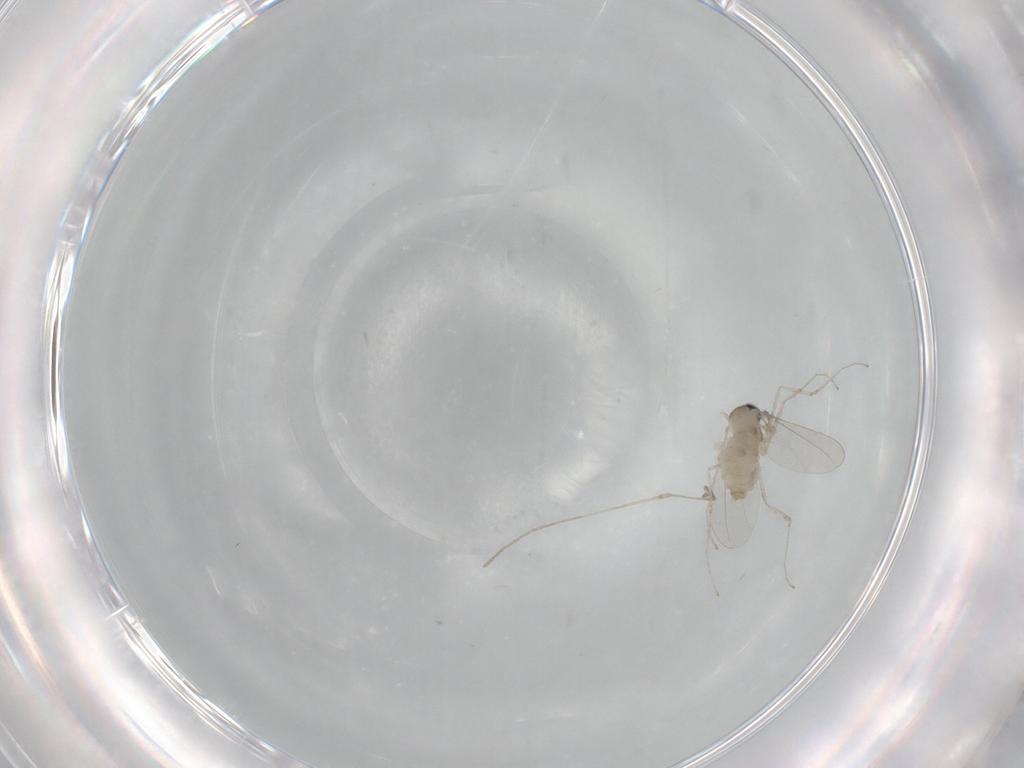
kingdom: Animalia
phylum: Arthropoda
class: Insecta
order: Diptera
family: Cecidomyiidae
